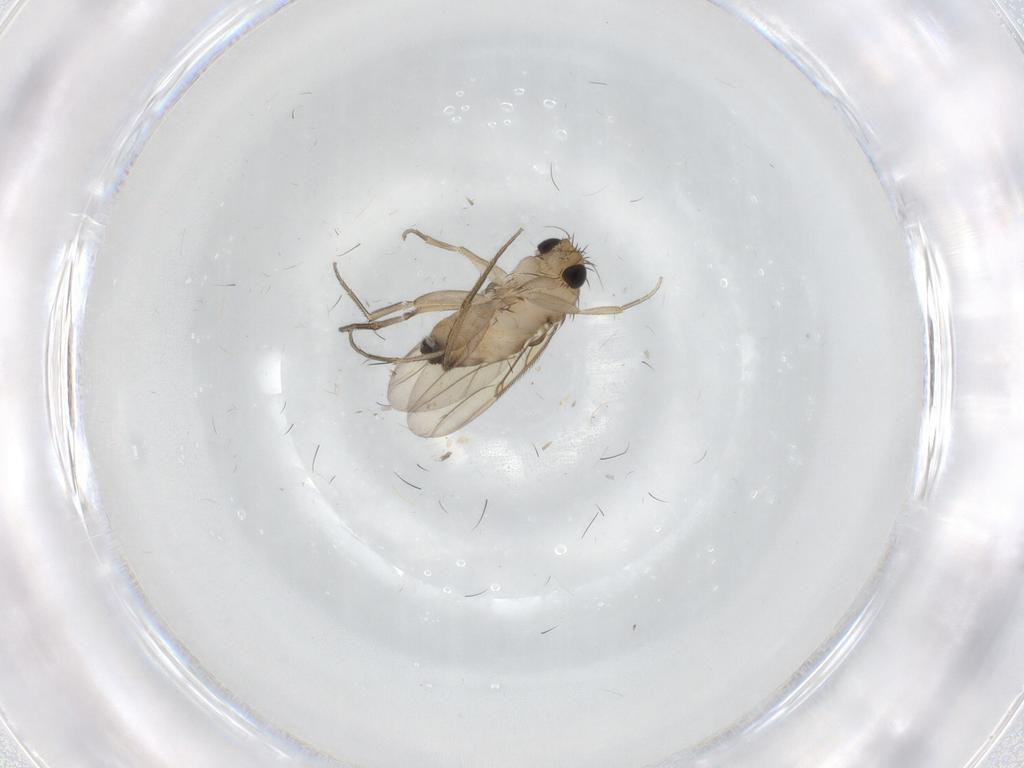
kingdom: Animalia
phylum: Arthropoda
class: Insecta
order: Diptera
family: Phoridae
